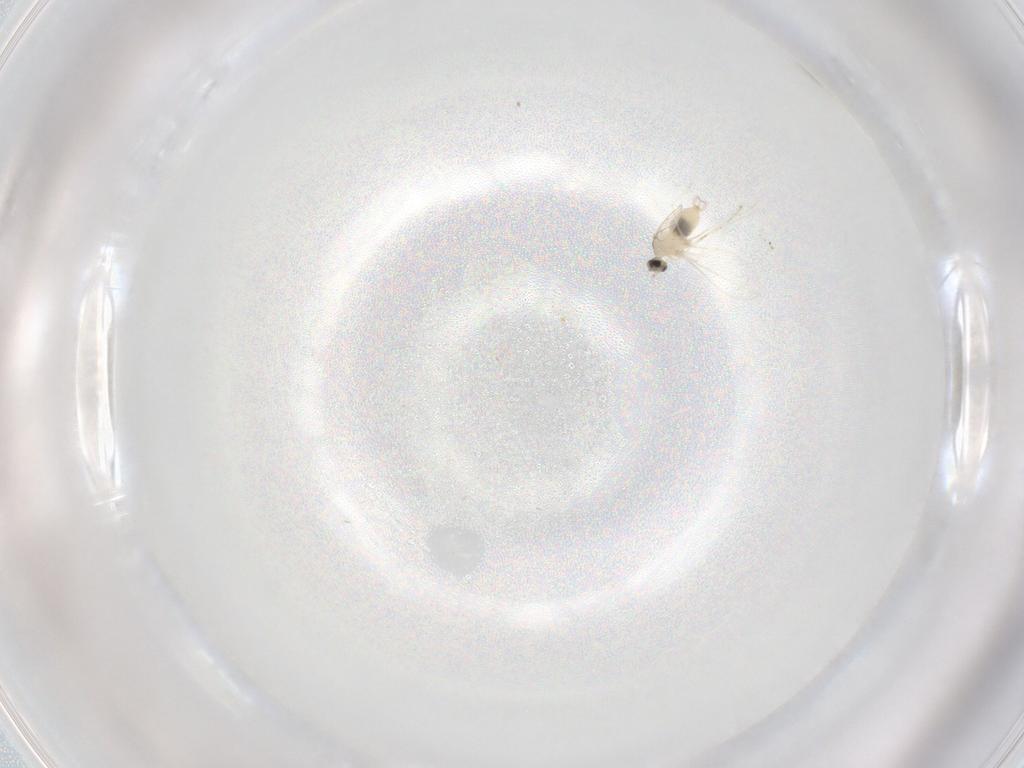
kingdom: Animalia
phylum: Arthropoda
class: Insecta
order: Diptera
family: Cecidomyiidae
